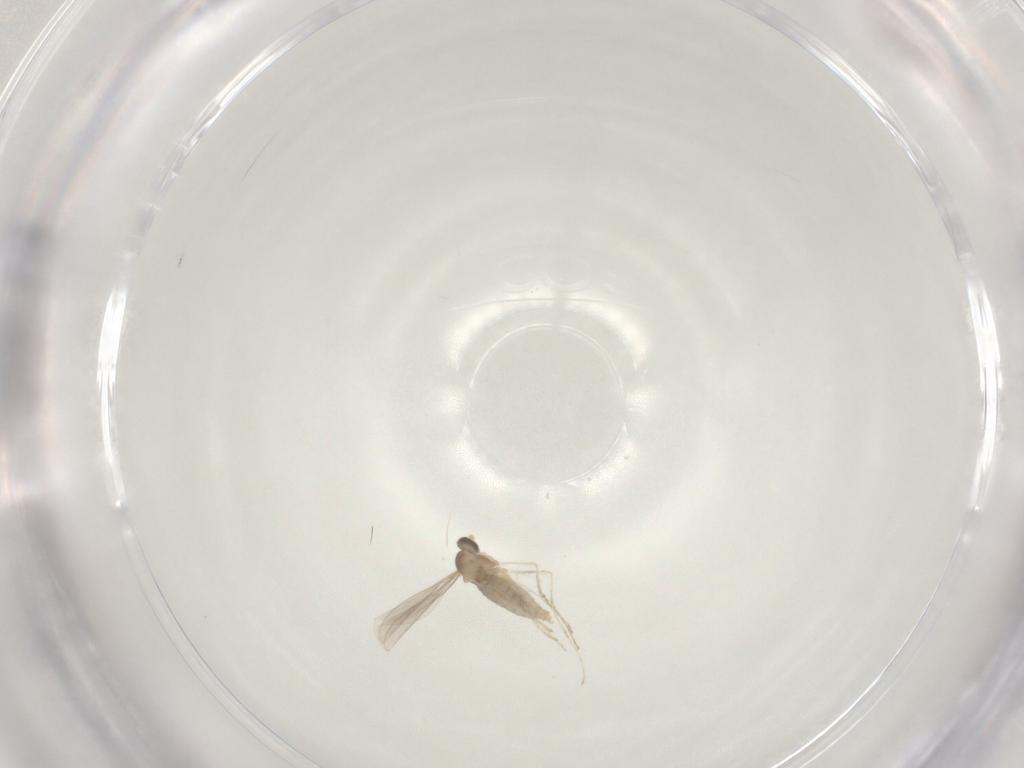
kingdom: Animalia
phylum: Arthropoda
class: Insecta
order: Diptera
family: Cecidomyiidae
